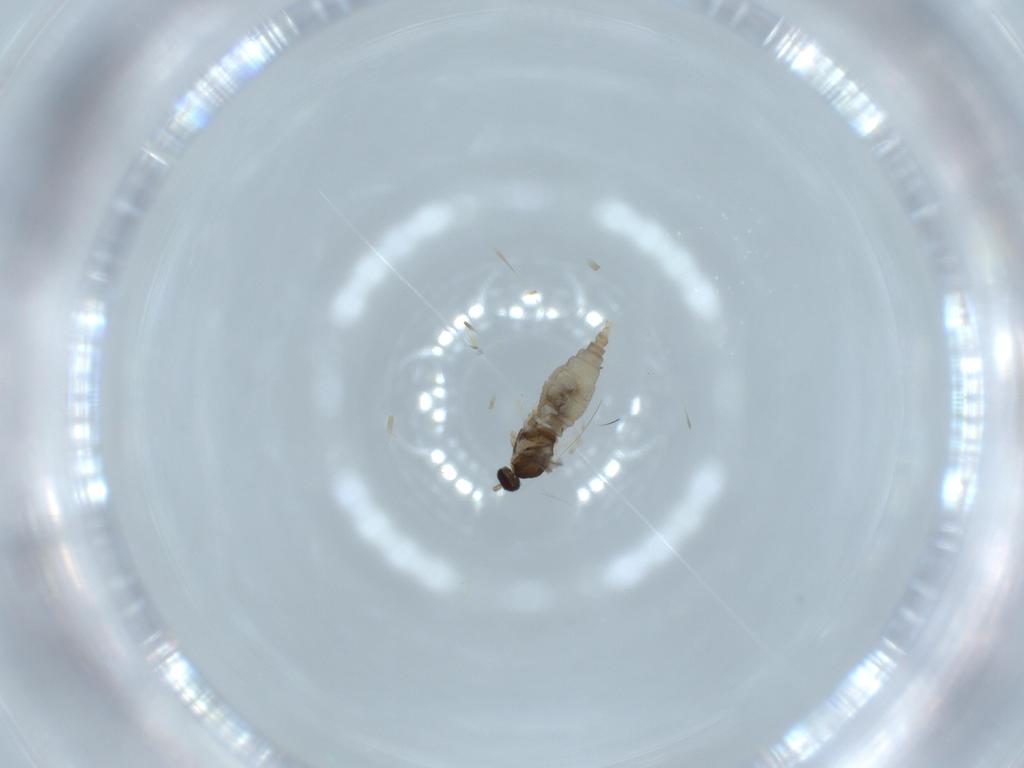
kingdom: Animalia
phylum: Arthropoda
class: Insecta
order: Diptera
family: Cecidomyiidae
